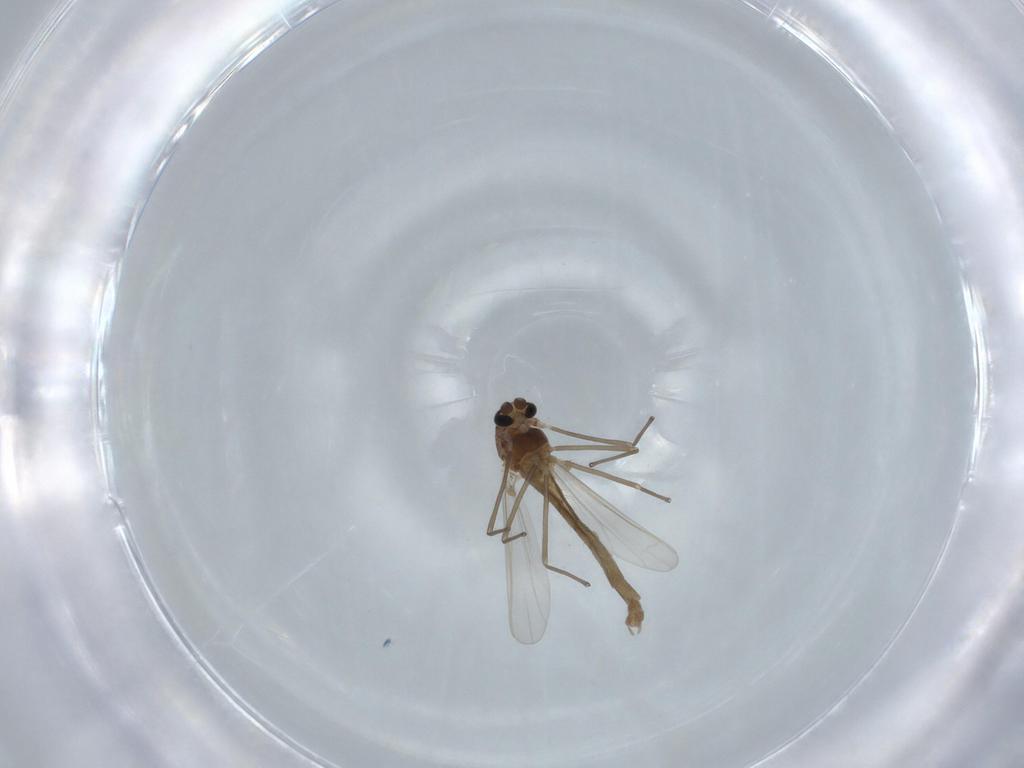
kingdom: Animalia
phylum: Arthropoda
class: Insecta
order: Diptera
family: Chironomidae
